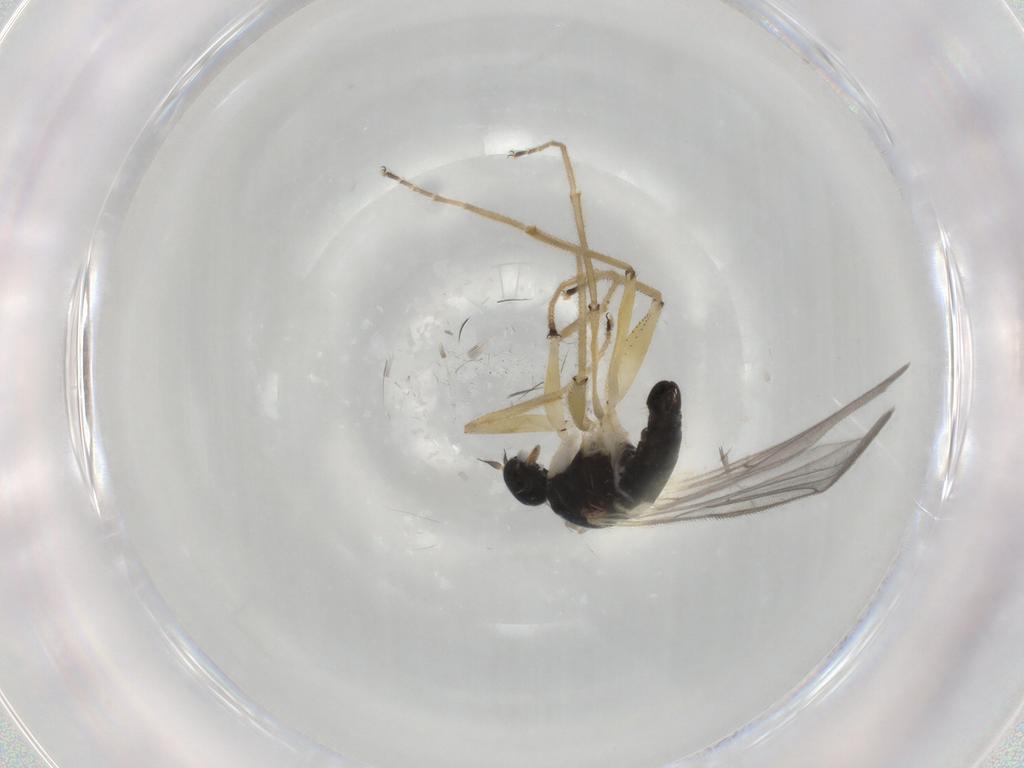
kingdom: Animalia
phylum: Arthropoda
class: Insecta
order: Diptera
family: Hybotidae
